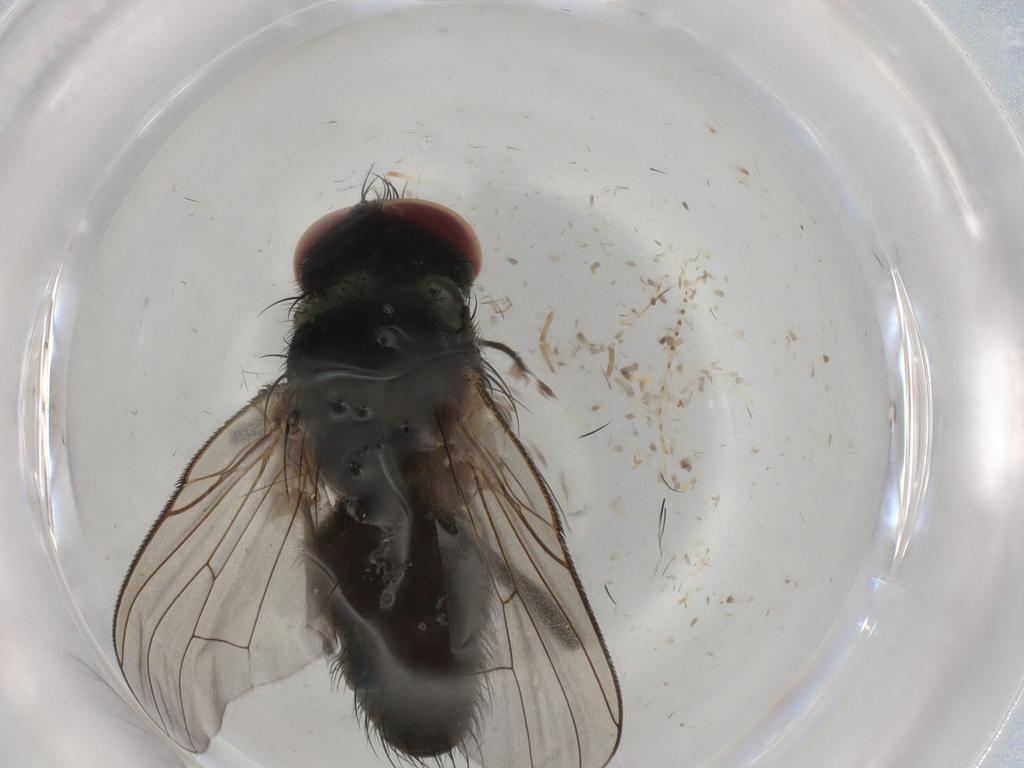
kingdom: Animalia
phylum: Arthropoda
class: Insecta
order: Diptera
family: Muscidae
